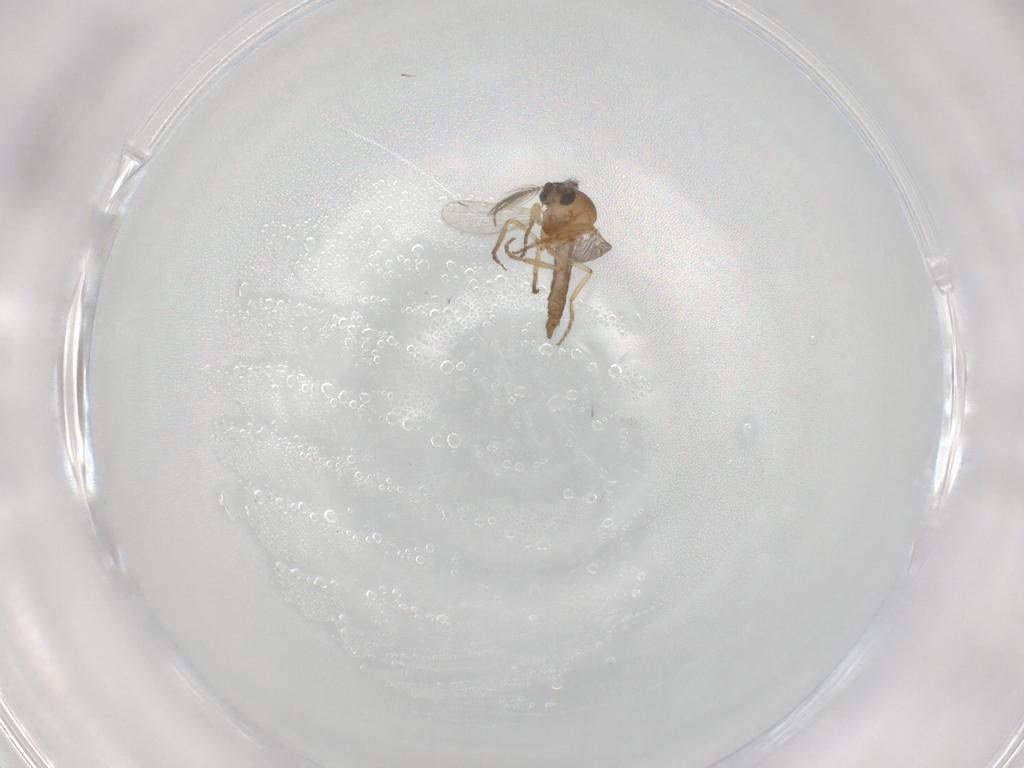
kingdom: Animalia
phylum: Arthropoda
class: Insecta
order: Diptera
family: Ceratopogonidae
